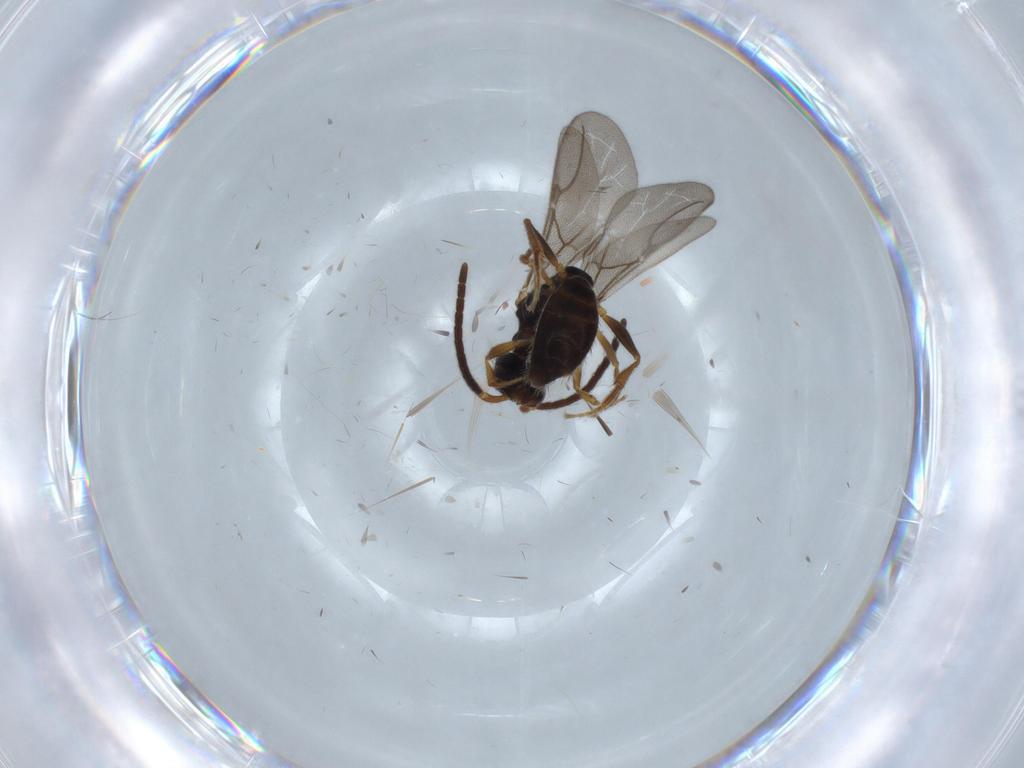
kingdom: Animalia
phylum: Arthropoda
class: Insecta
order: Hymenoptera
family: Bethylidae
